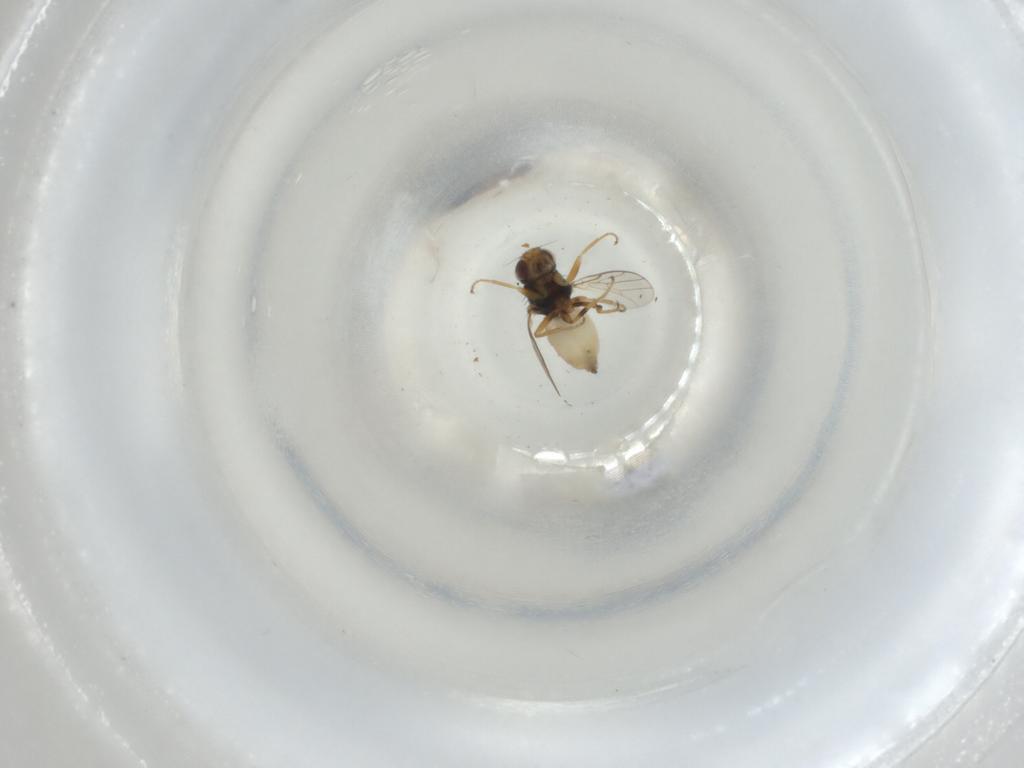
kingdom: Animalia
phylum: Arthropoda
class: Insecta
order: Diptera
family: Chloropidae
